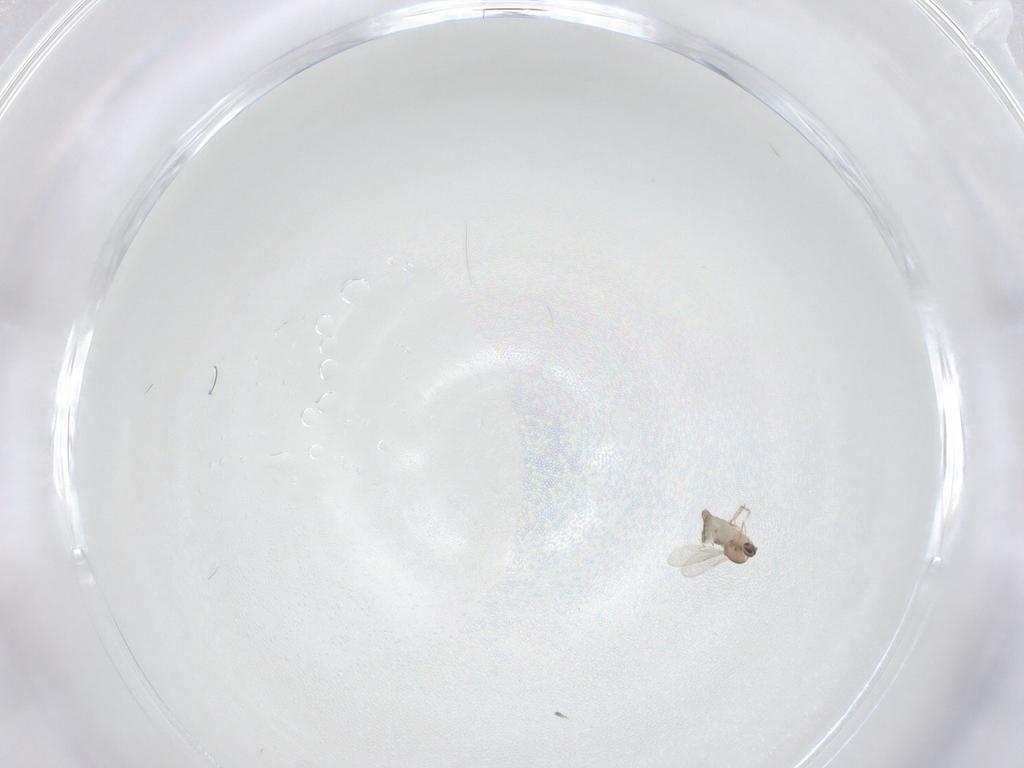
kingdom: Animalia
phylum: Arthropoda
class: Insecta
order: Diptera
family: Ceratopogonidae
